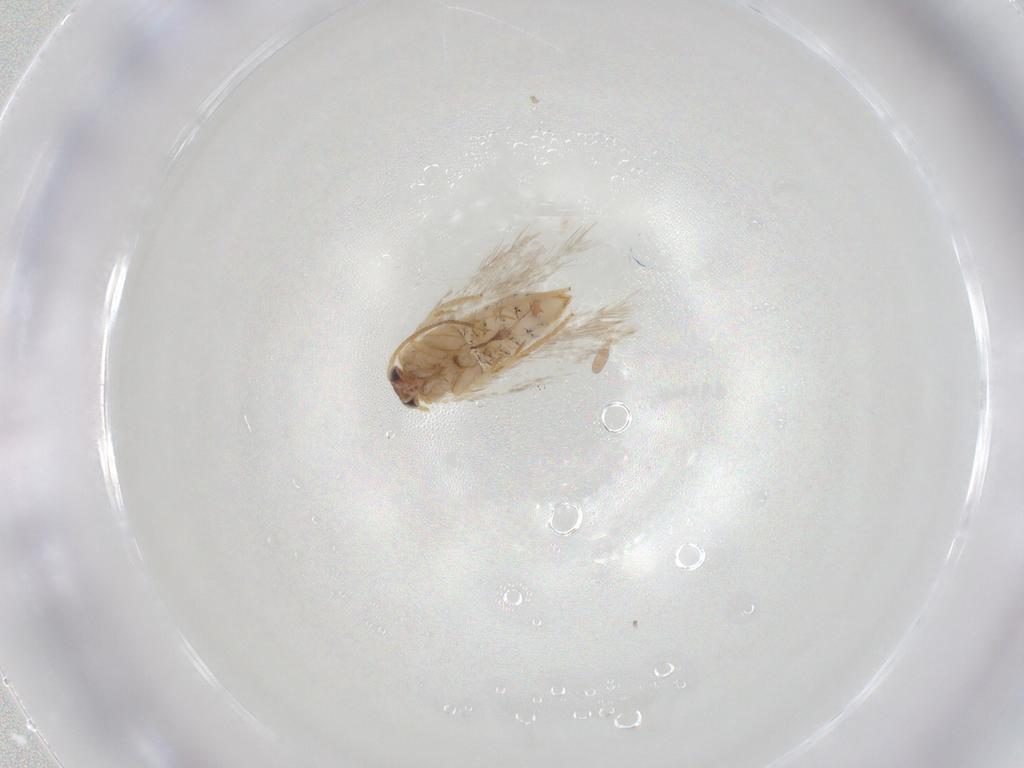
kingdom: Animalia
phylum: Arthropoda
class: Insecta
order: Lepidoptera
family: Nepticulidae
